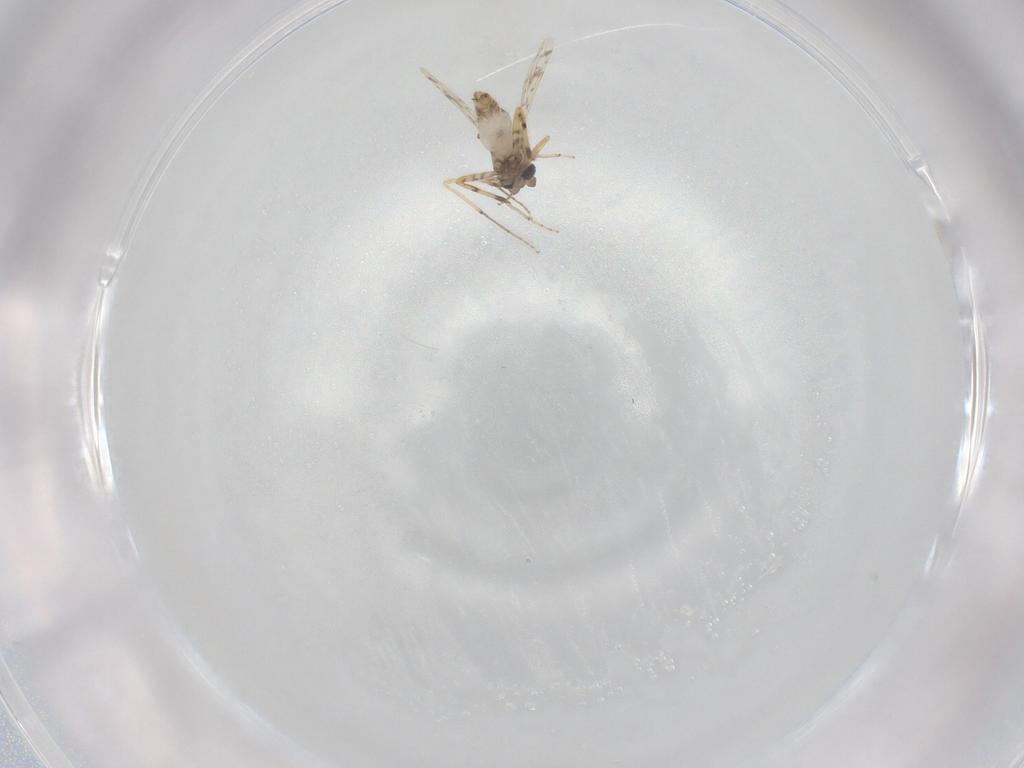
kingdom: Animalia
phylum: Arthropoda
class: Insecta
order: Diptera
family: Ceratopogonidae
